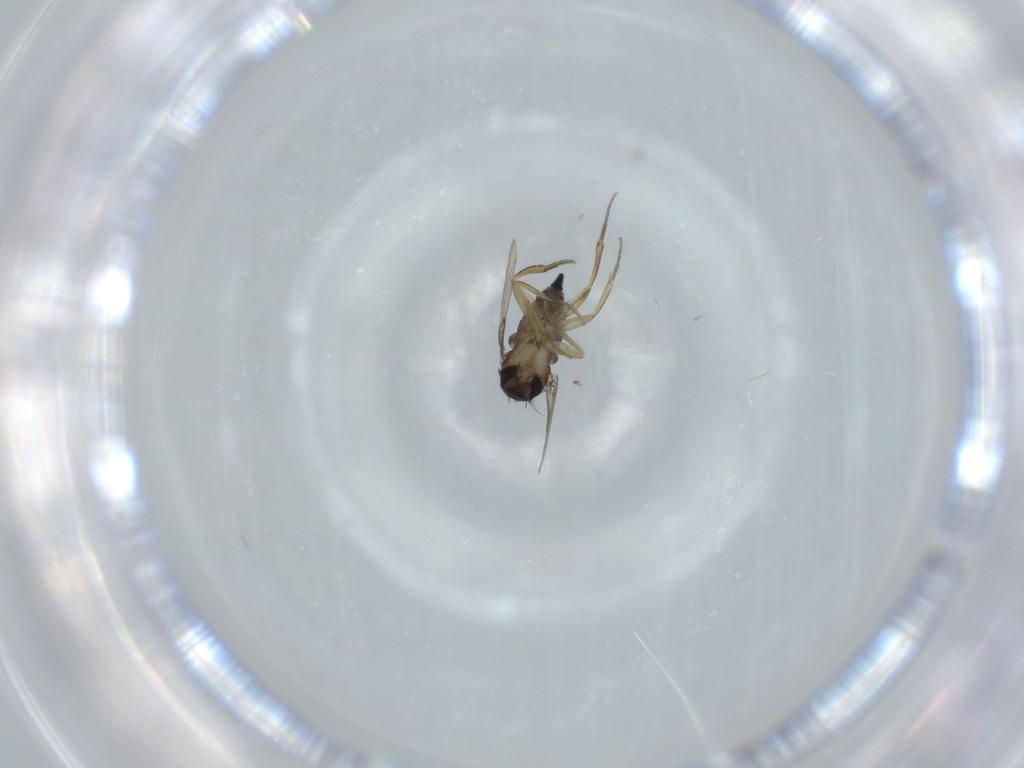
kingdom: Animalia
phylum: Arthropoda
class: Insecta
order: Diptera
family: Phoridae
